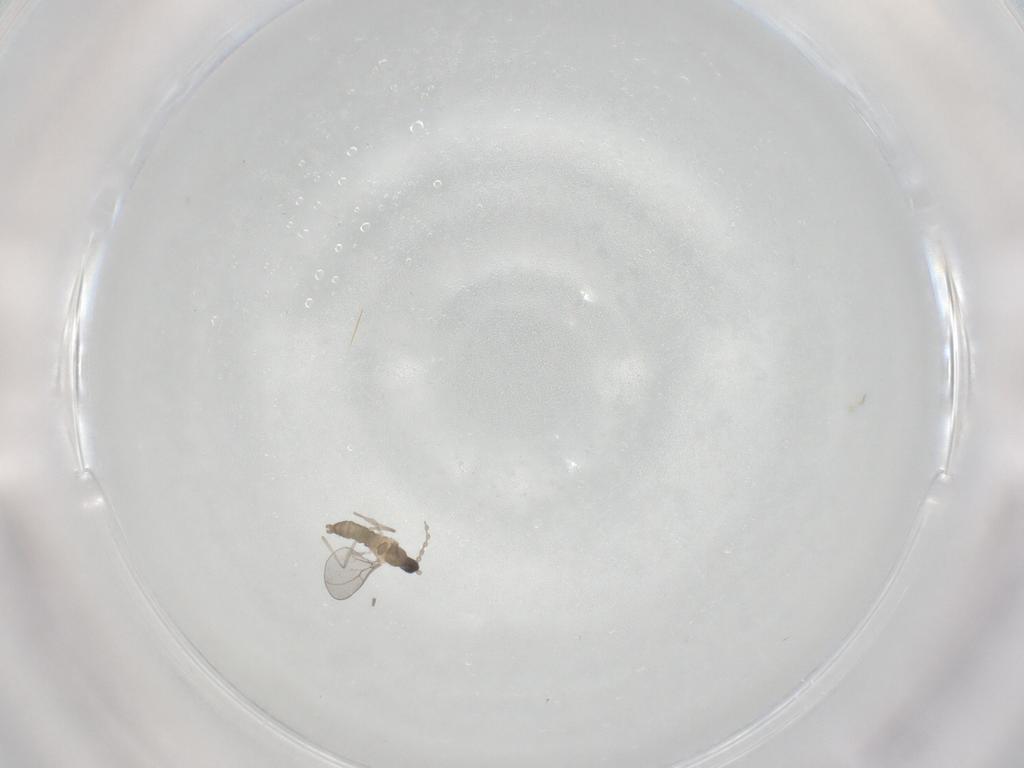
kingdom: Animalia
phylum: Arthropoda
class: Insecta
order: Diptera
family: Cecidomyiidae
